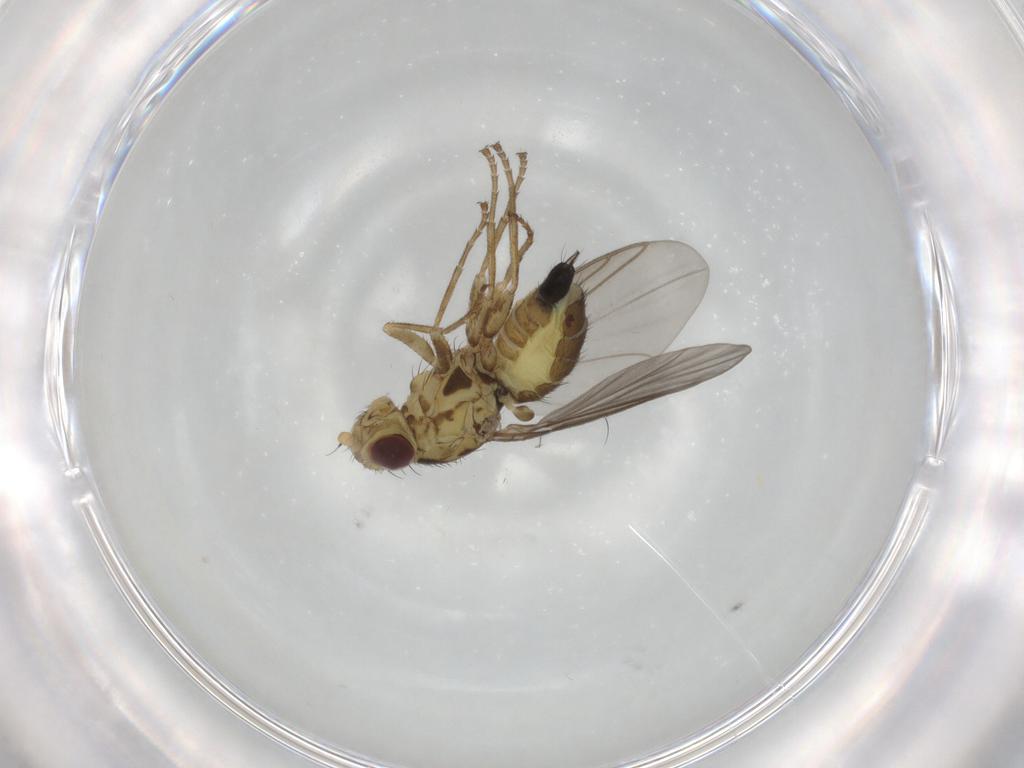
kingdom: Animalia
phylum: Arthropoda
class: Insecta
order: Diptera
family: Agromyzidae
